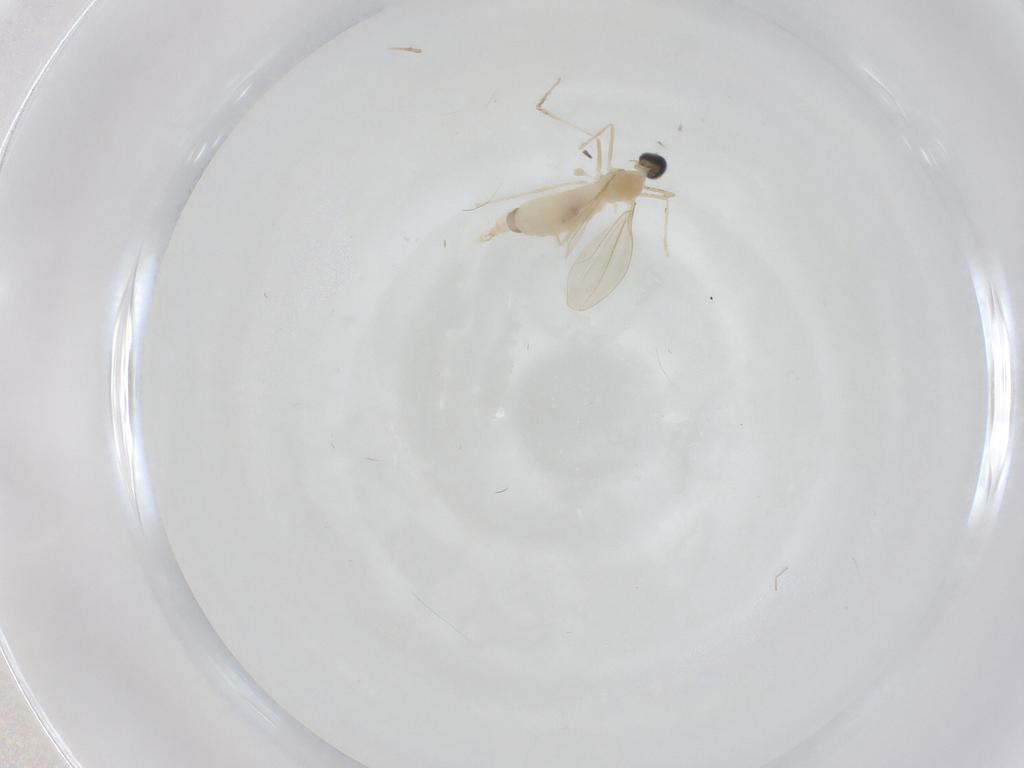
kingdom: Animalia
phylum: Arthropoda
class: Insecta
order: Diptera
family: Cecidomyiidae
